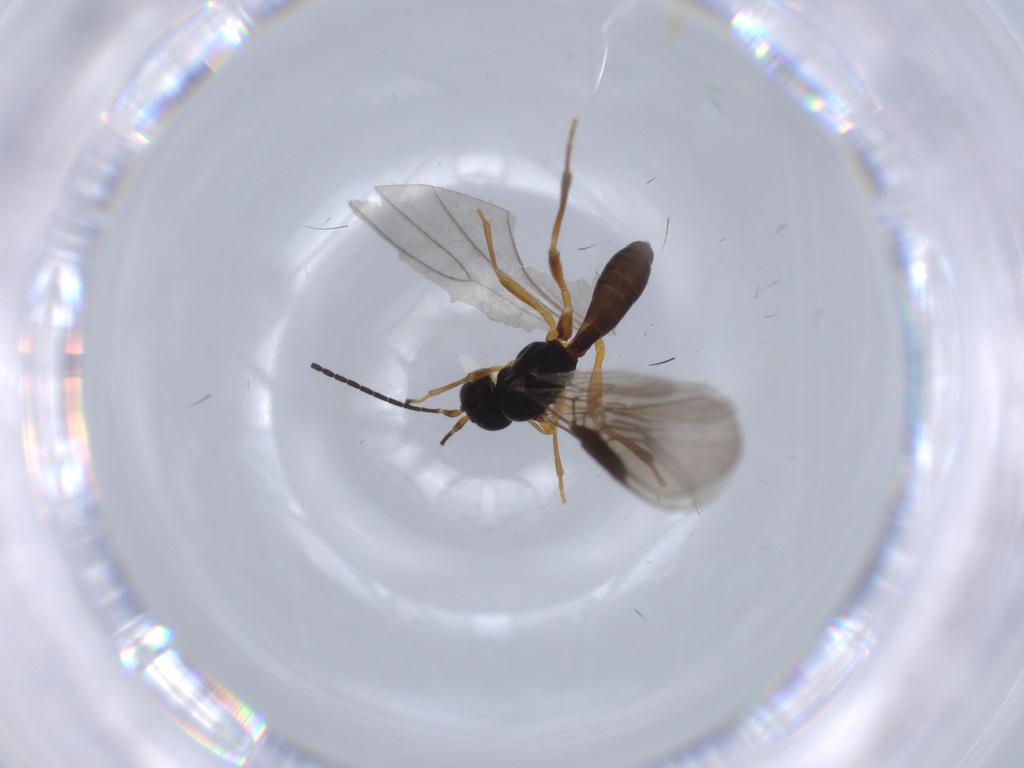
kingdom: Animalia
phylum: Arthropoda
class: Insecta
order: Hymenoptera
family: Braconidae
